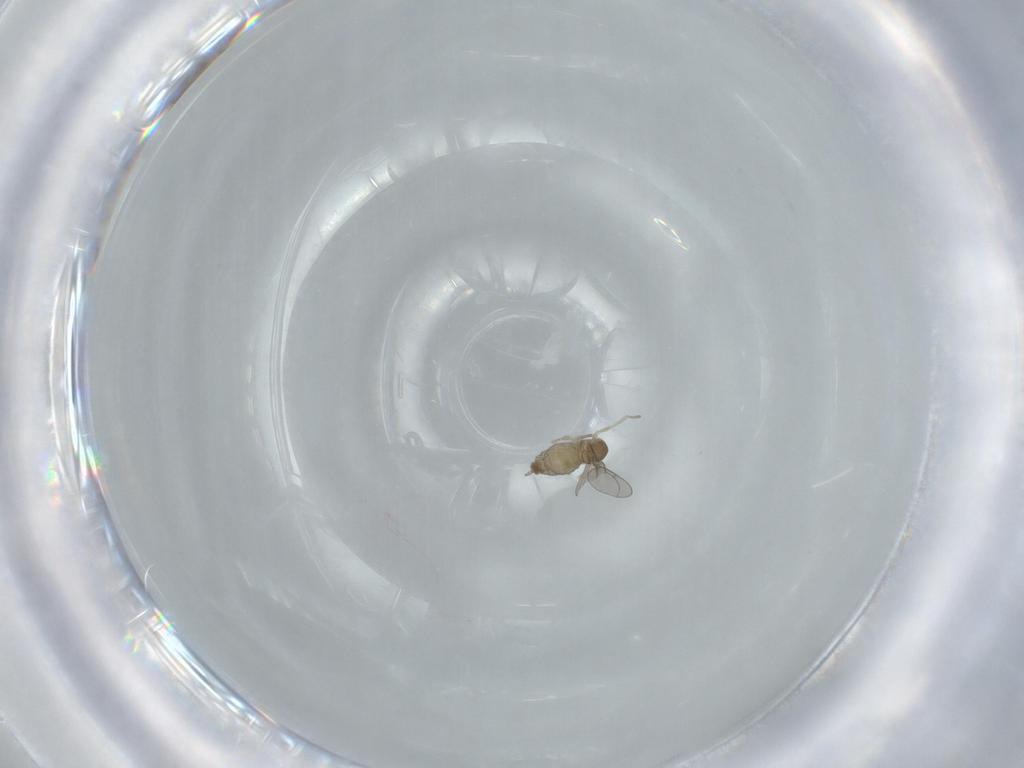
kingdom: Animalia
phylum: Arthropoda
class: Insecta
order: Diptera
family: Cecidomyiidae
